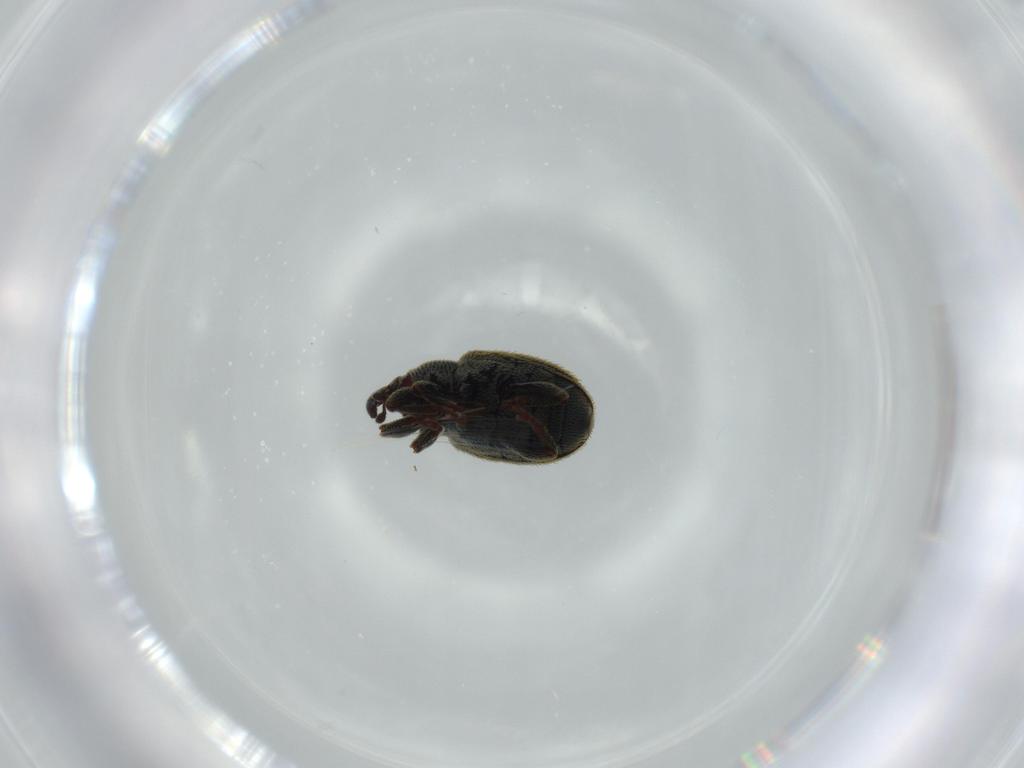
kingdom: Animalia
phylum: Arthropoda
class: Insecta
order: Coleoptera
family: Curculionidae
